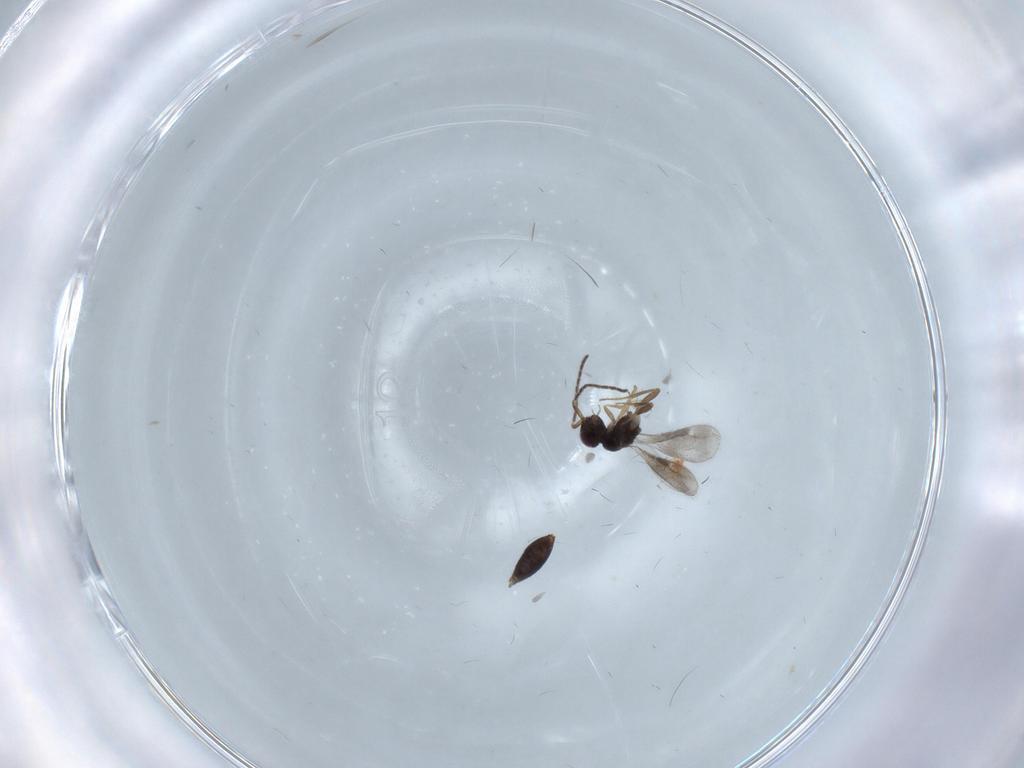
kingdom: Animalia
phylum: Arthropoda
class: Insecta
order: Hymenoptera
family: Megaspilidae
